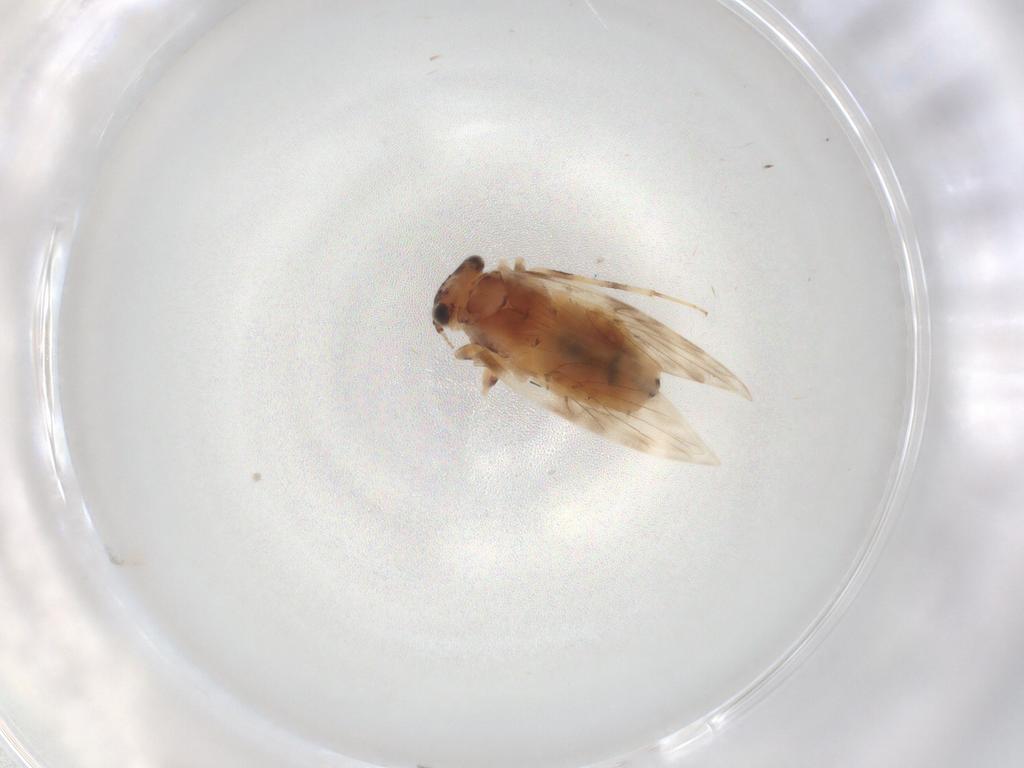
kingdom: Animalia
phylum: Arthropoda
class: Insecta
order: Psocodea
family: Lepidopsocidae
